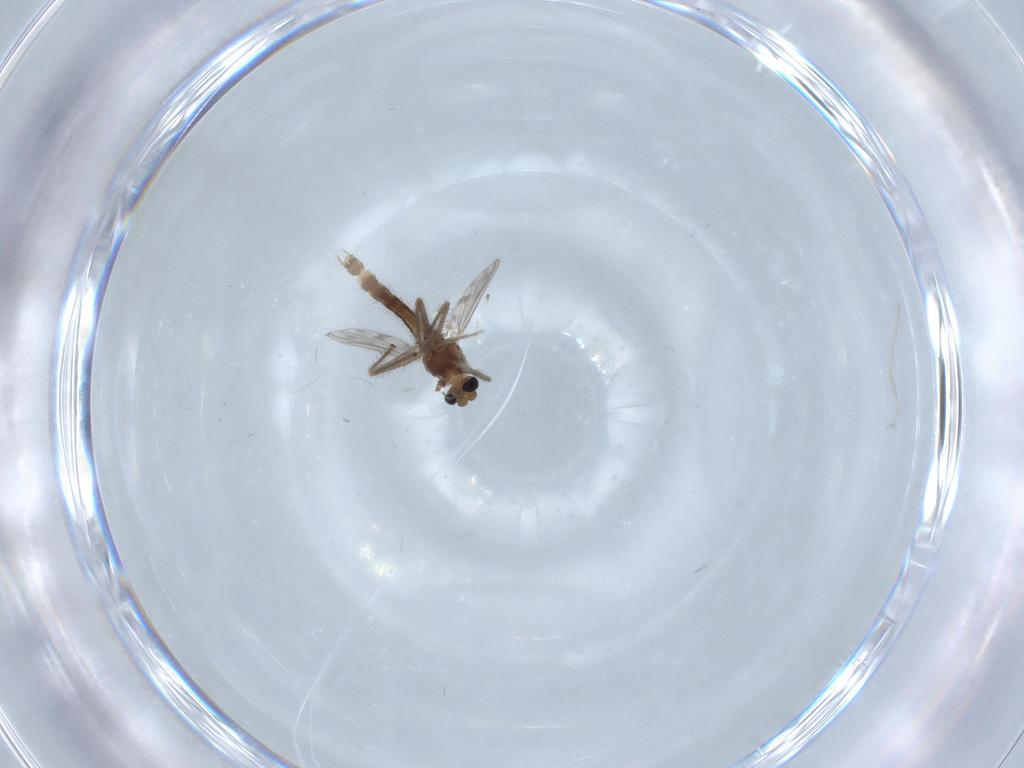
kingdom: Animalia
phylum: Arthropoda
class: Insecta
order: Diptera
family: Chironomidae
